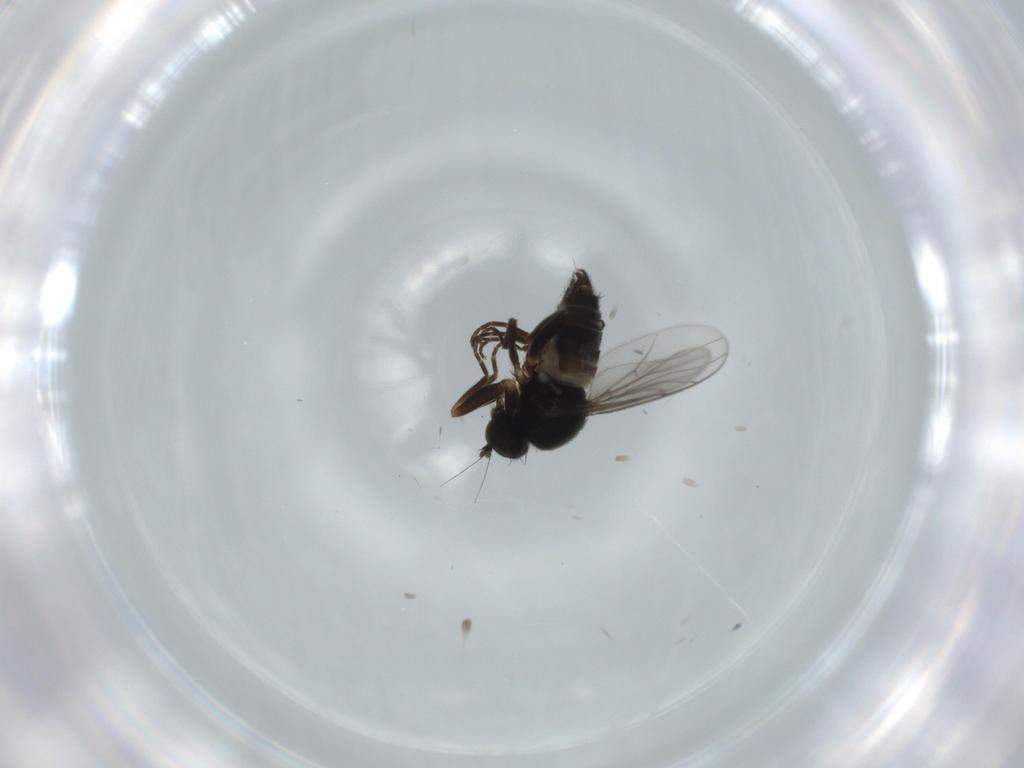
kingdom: Animalia
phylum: Arthropoda
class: Insecta
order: Diptera
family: Hybotidae
